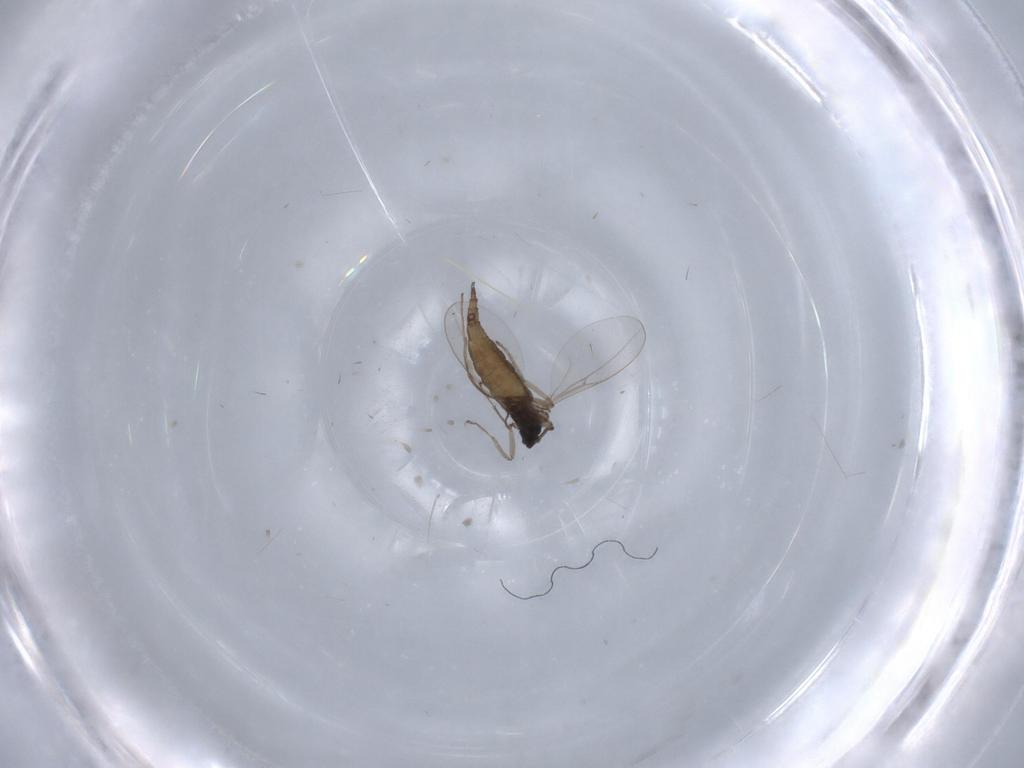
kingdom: Animalia
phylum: Arthropoda
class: Insecta
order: Diptera
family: Cecidomyiidae
